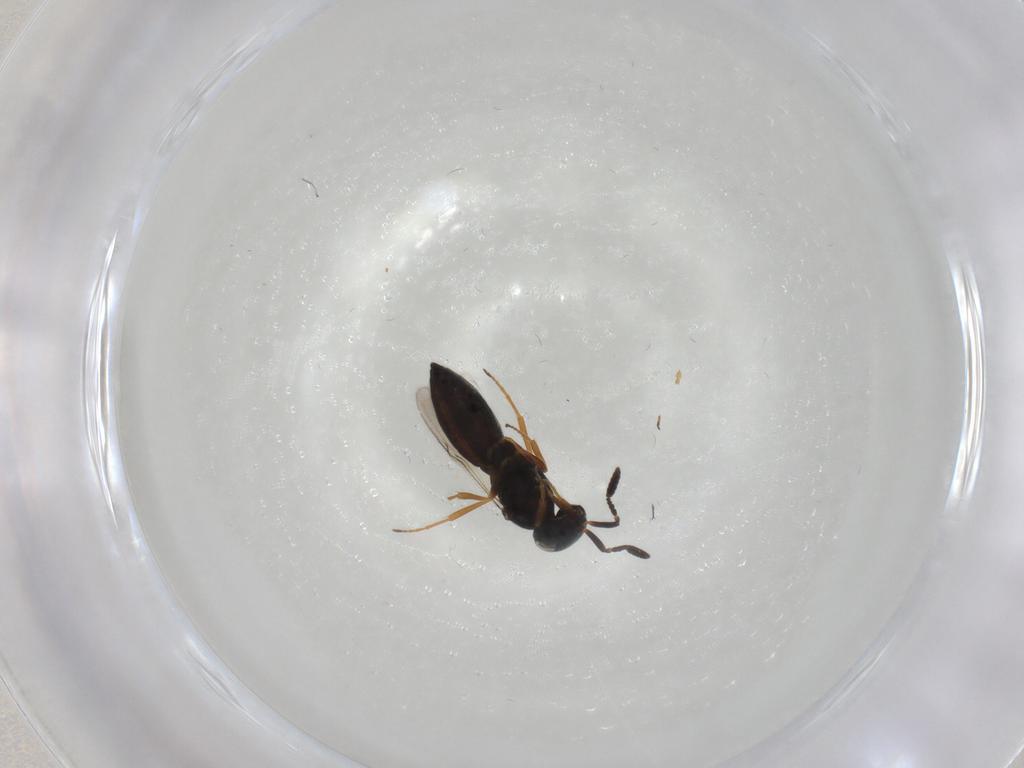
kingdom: Animalia
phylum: Arthropoda
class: Insecta
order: Hymenoptera
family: Scelionidae
